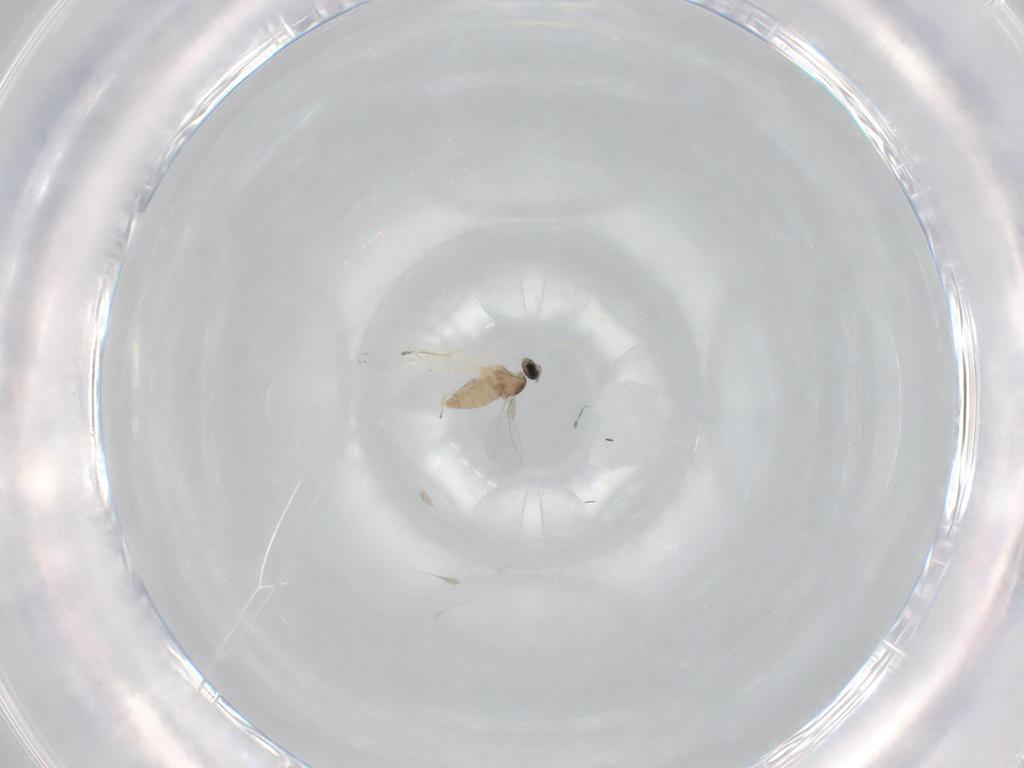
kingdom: Animalia
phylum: Arthropoda
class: Insecta
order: Diptera
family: Cecidomyiidae
